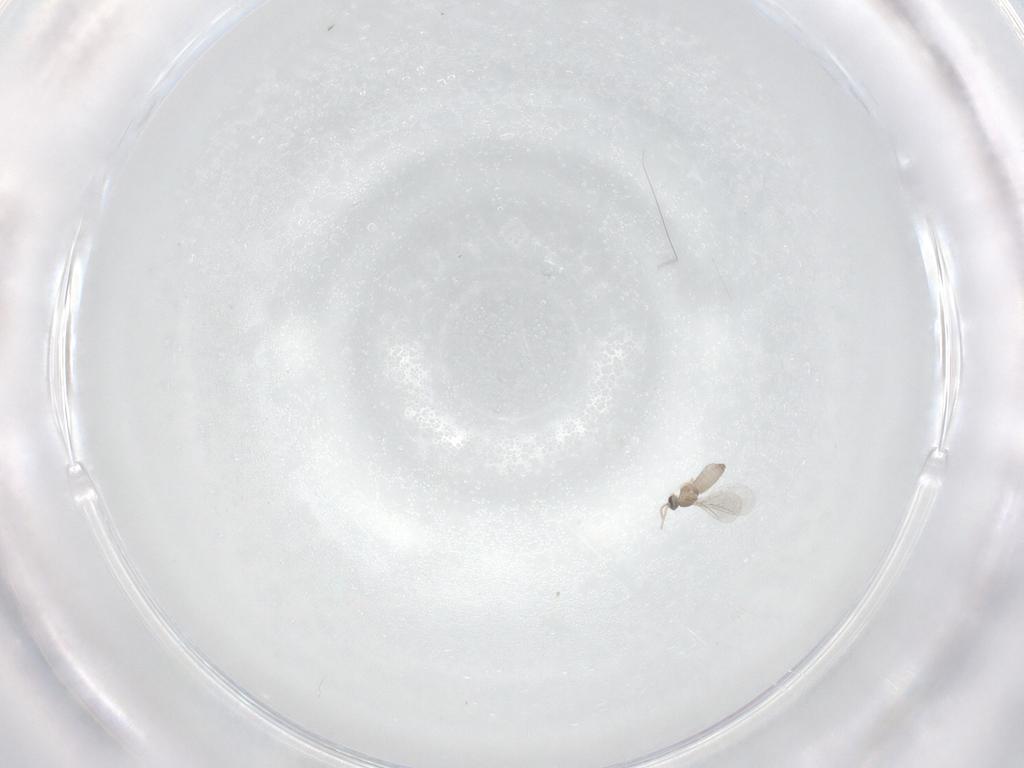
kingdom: Animalia
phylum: Arthropoda
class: Insecta
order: Diptera
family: Cecidomyiidae
